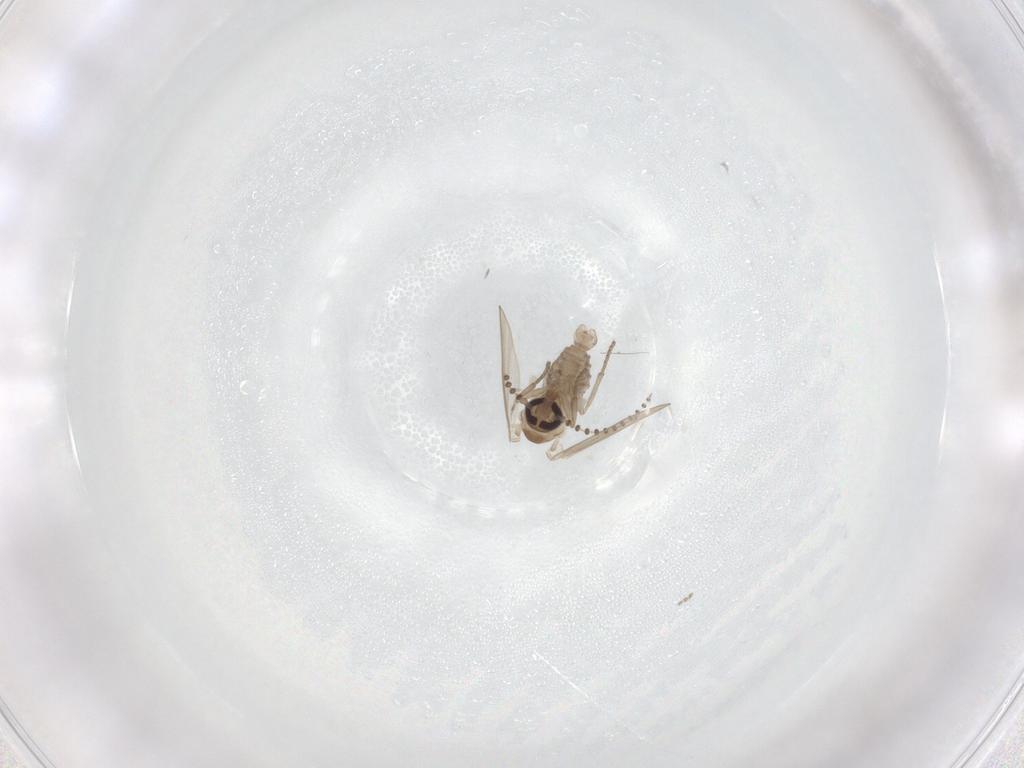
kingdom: Animalia
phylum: Arthropoda
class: Insecta
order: Diptera
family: Psychodidae
